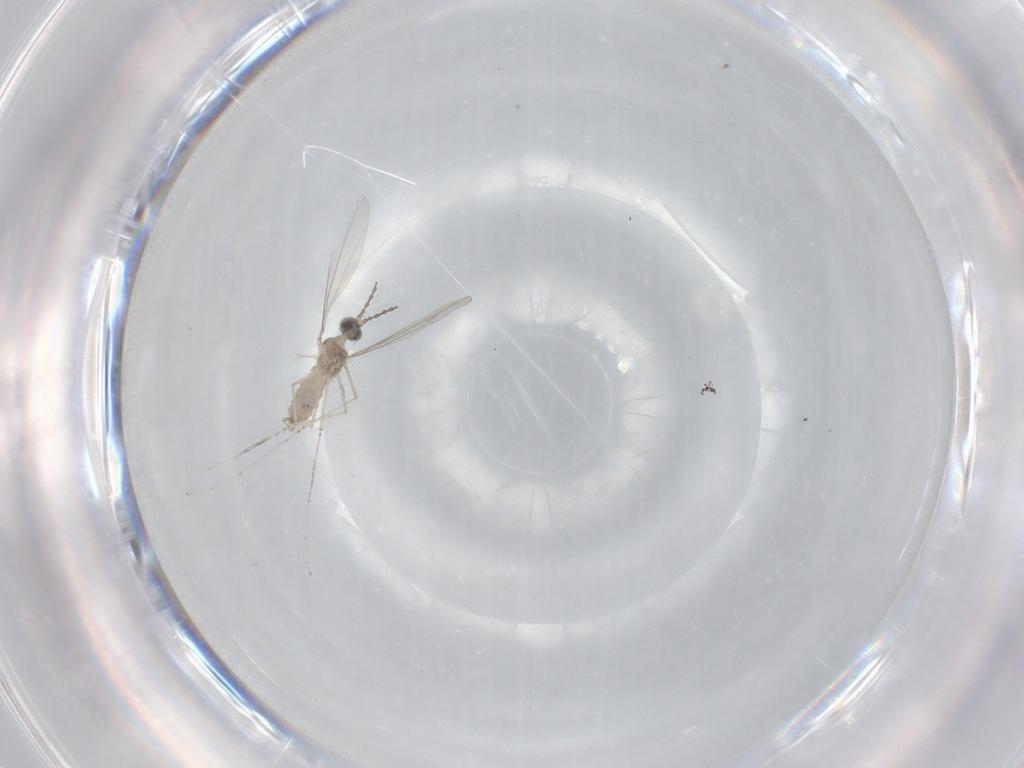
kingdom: Animalia
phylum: Arthropoda
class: Insecta
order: Diptera
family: Cecidomyiidae
